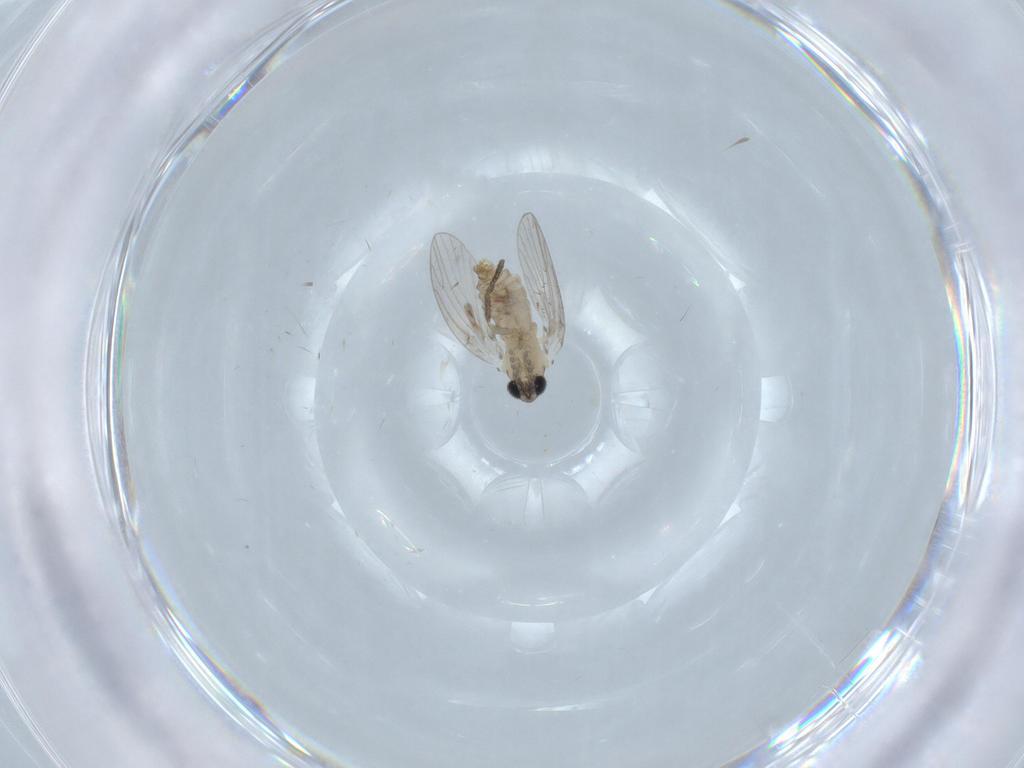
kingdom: Animalia
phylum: Arthropoda
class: Insecta
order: Diptera
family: Psychodidae
